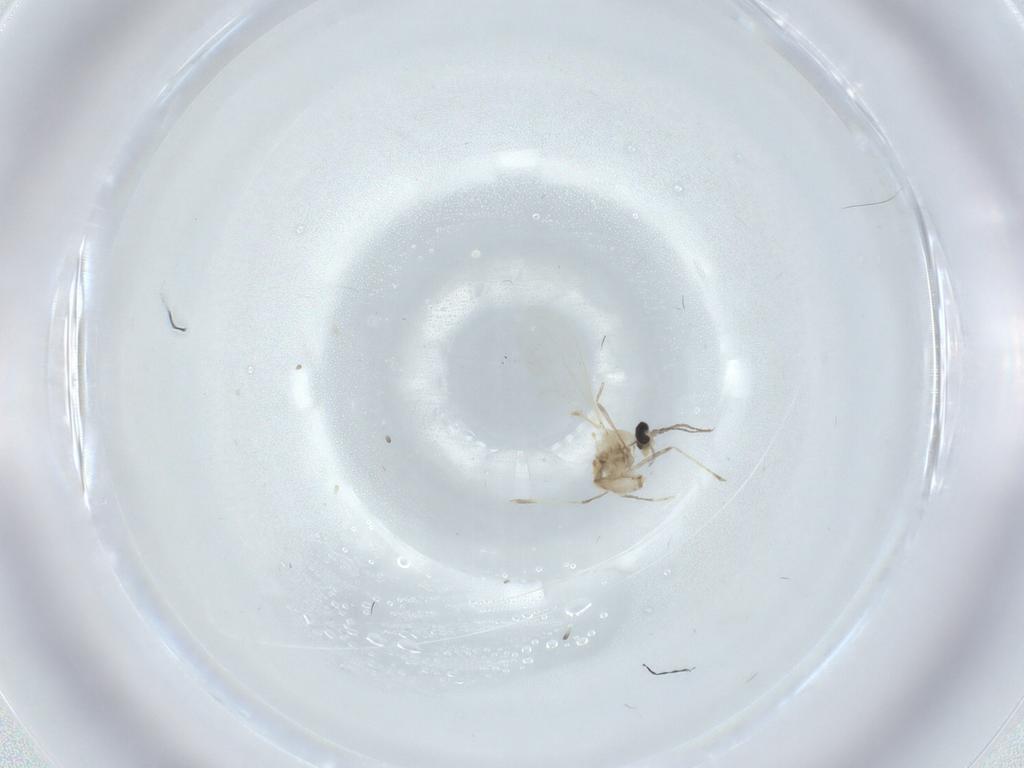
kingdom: Animalia
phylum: Arthropoda
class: Insecta
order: Diptera
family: Cecidomyiidae
